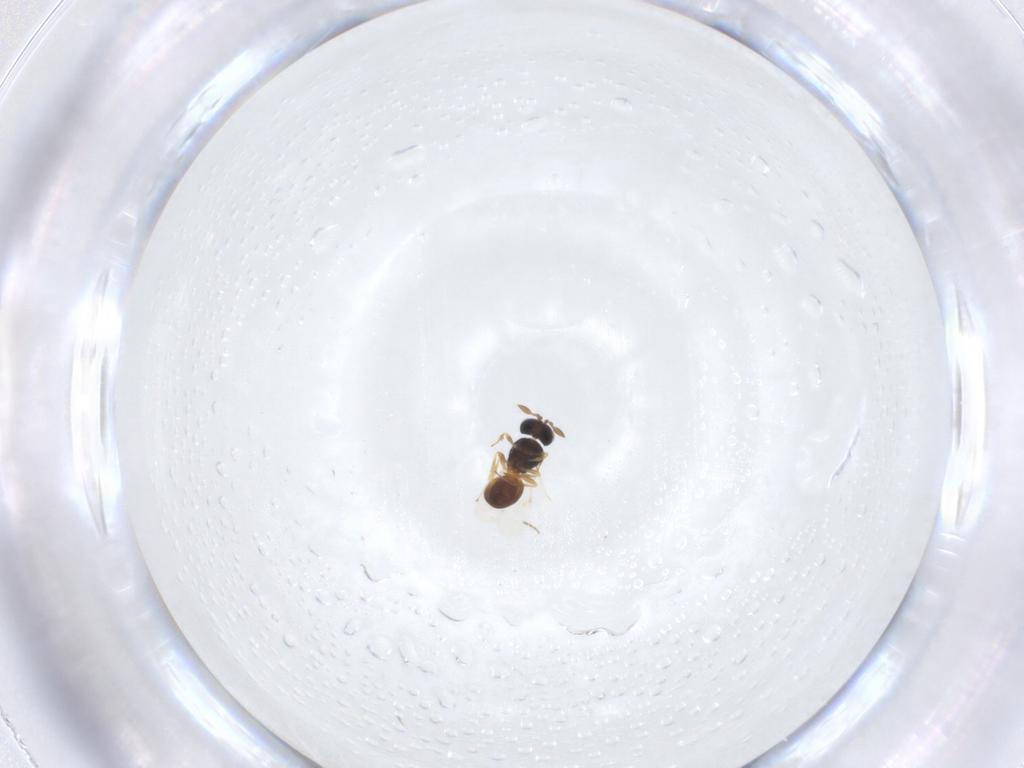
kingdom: Animalia
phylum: Arthropoda
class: Insecta
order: Hymenoptera
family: Scelionidae
